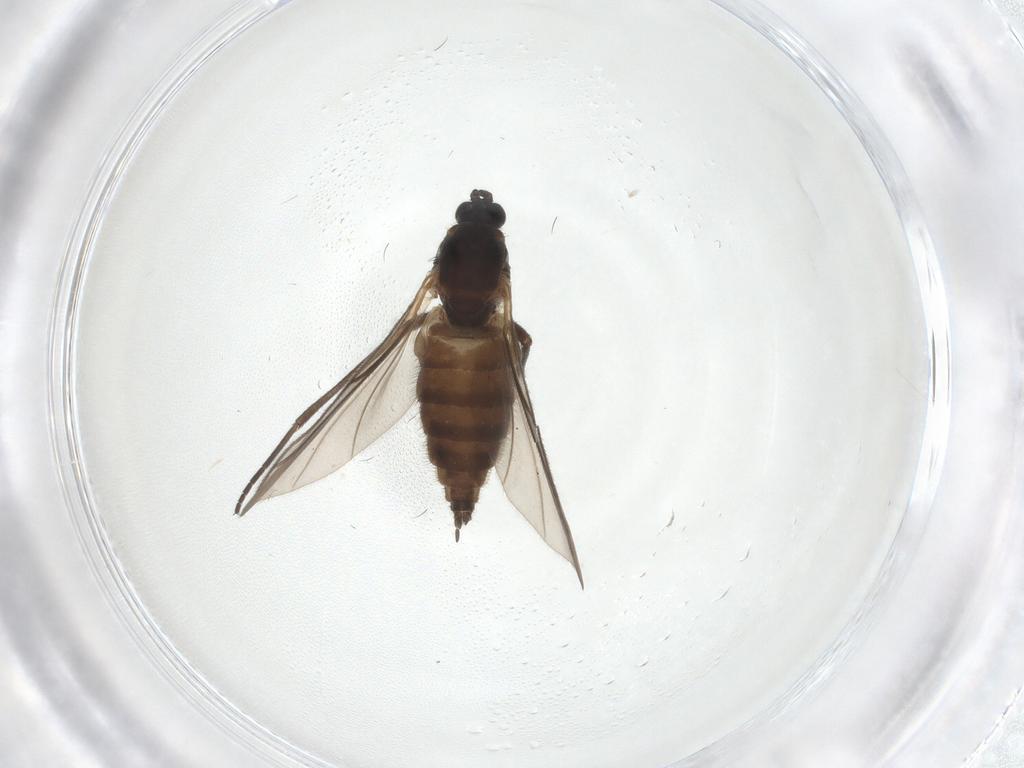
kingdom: Animalia
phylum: Arthropoda
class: Insecta
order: Diptera
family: Sciaridae
